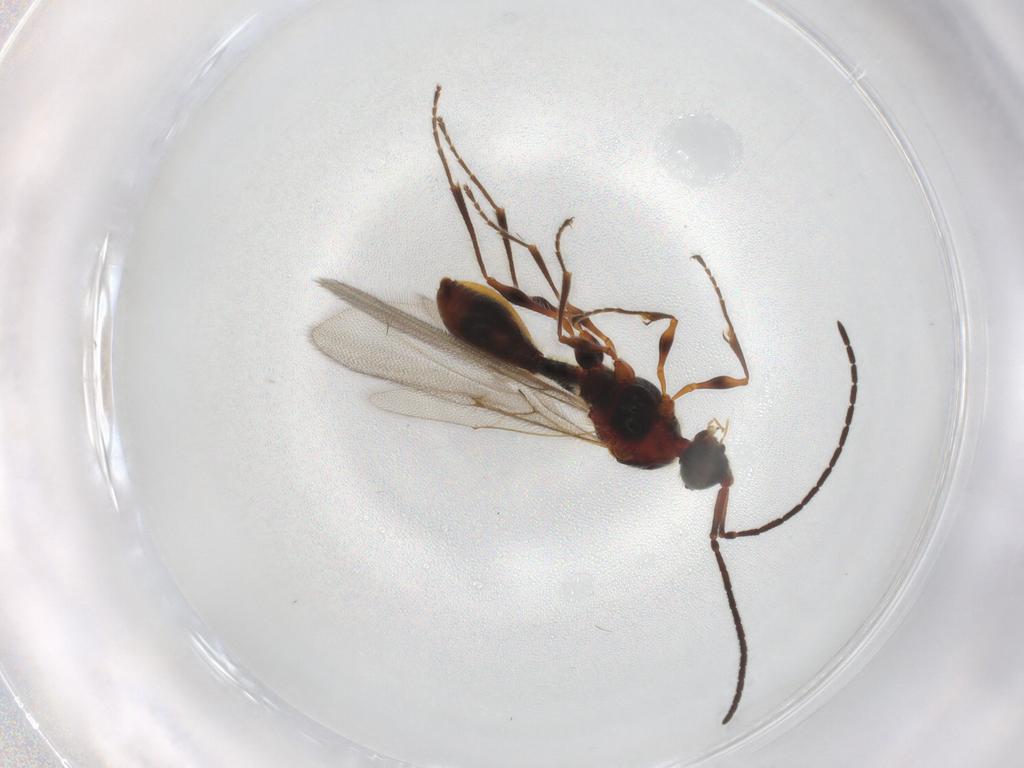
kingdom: Animalia
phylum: Arthropoda
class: Insecta
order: Hymenoptera
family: Diapriidae
